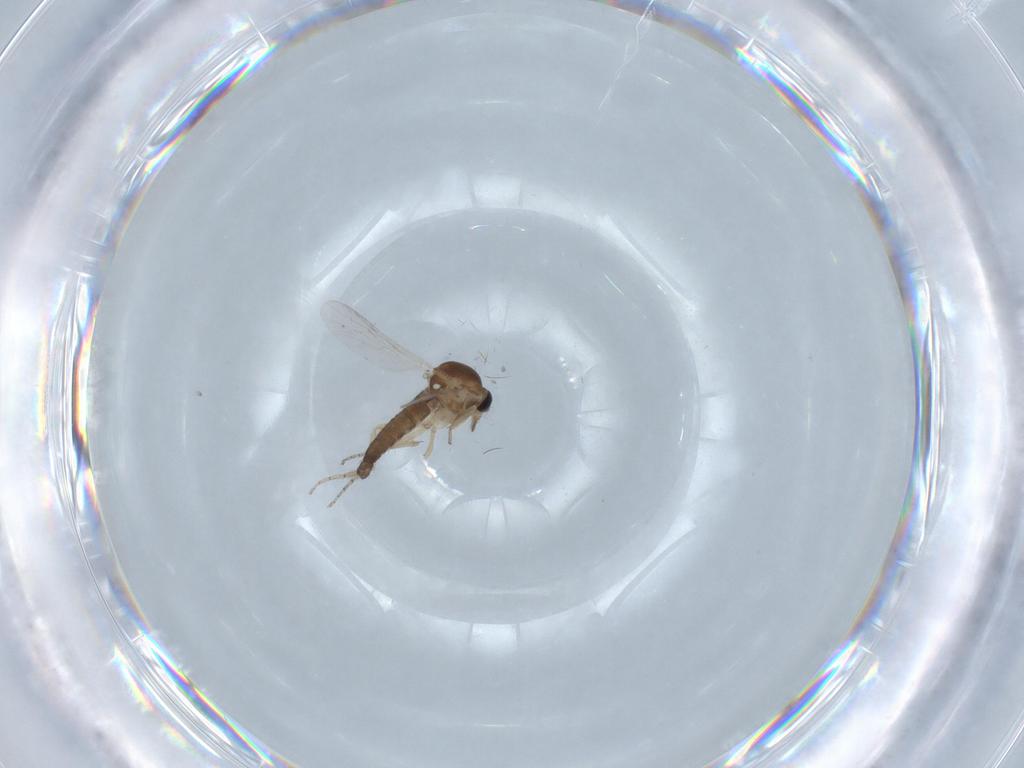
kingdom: Animalia
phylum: Arthropoda
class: Insecta
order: Diptera
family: Ceratopogonidae
